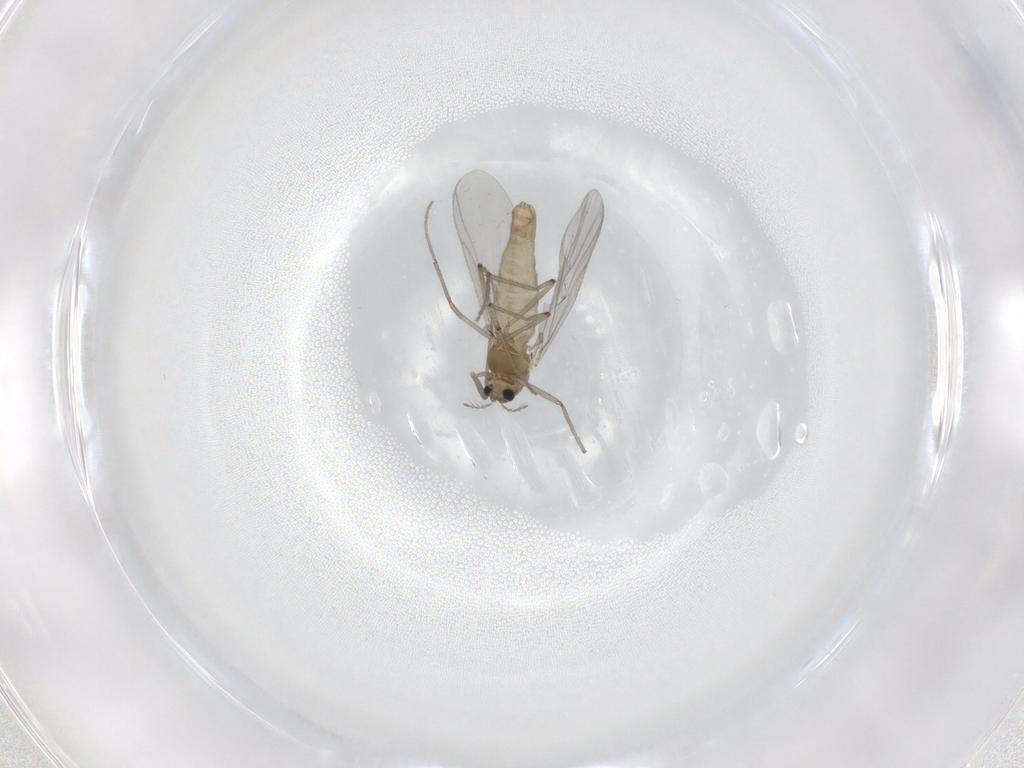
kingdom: Animalia
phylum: Arthropoda
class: Insecta
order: Diptera
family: Chironomidae
